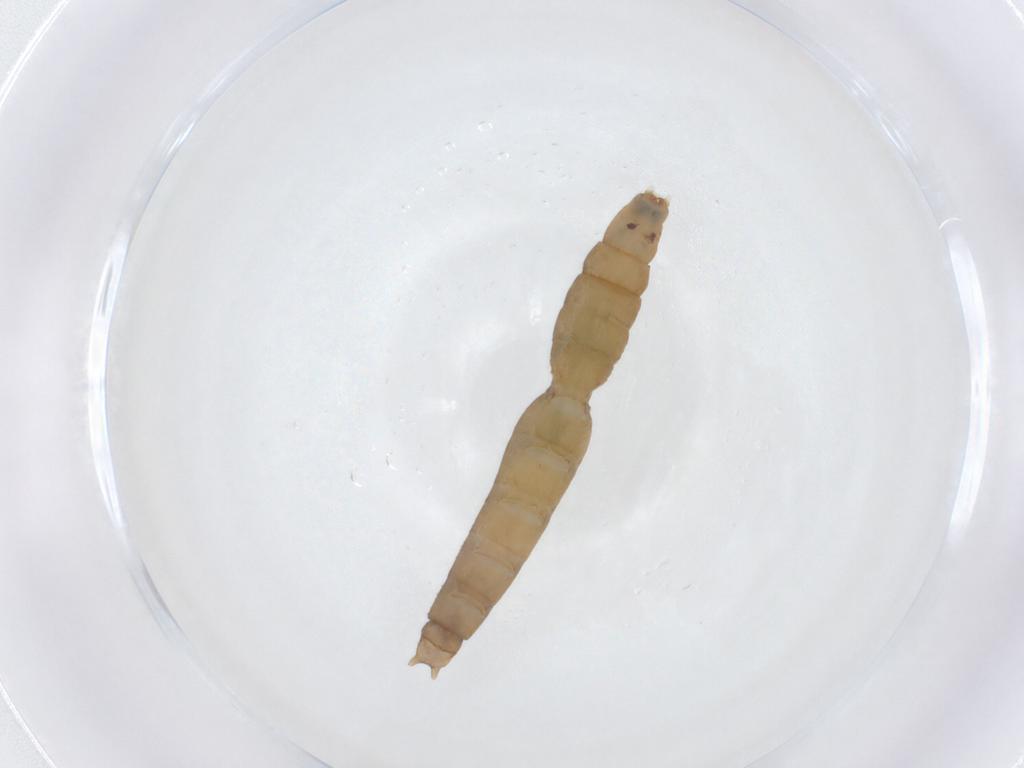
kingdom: Animalia
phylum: Arthropoda
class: Insecta
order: Diptera
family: Pediciidae
